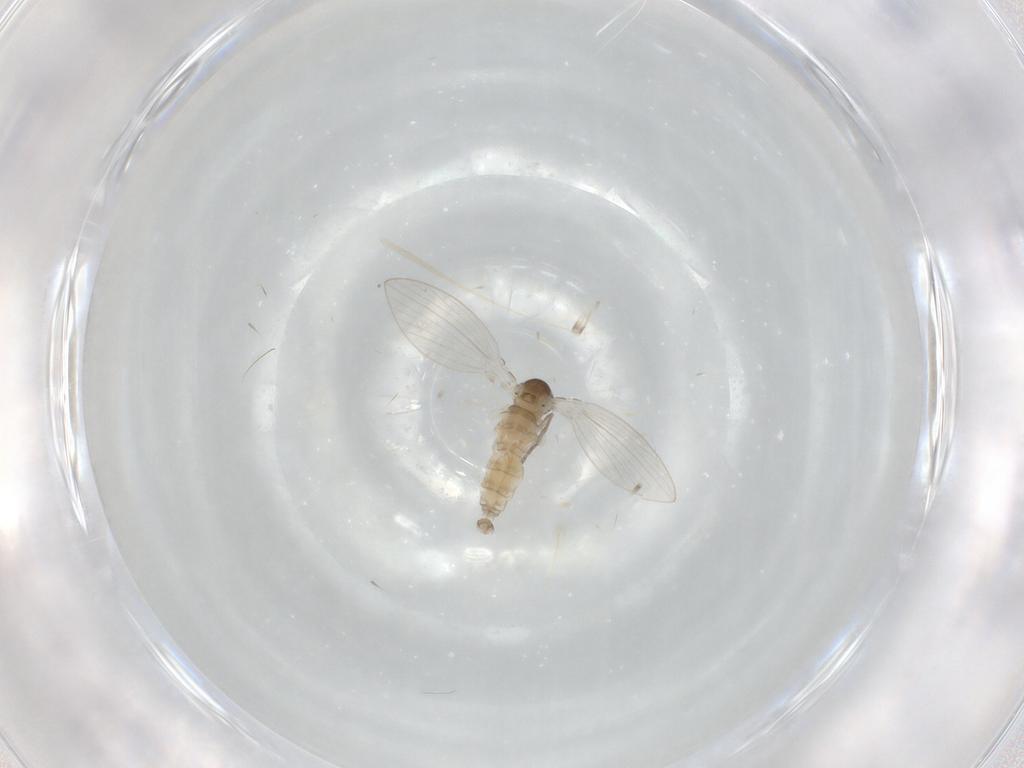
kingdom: Animalia
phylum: Arthropoda
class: Insecta
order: Diptera
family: Psychodidae
